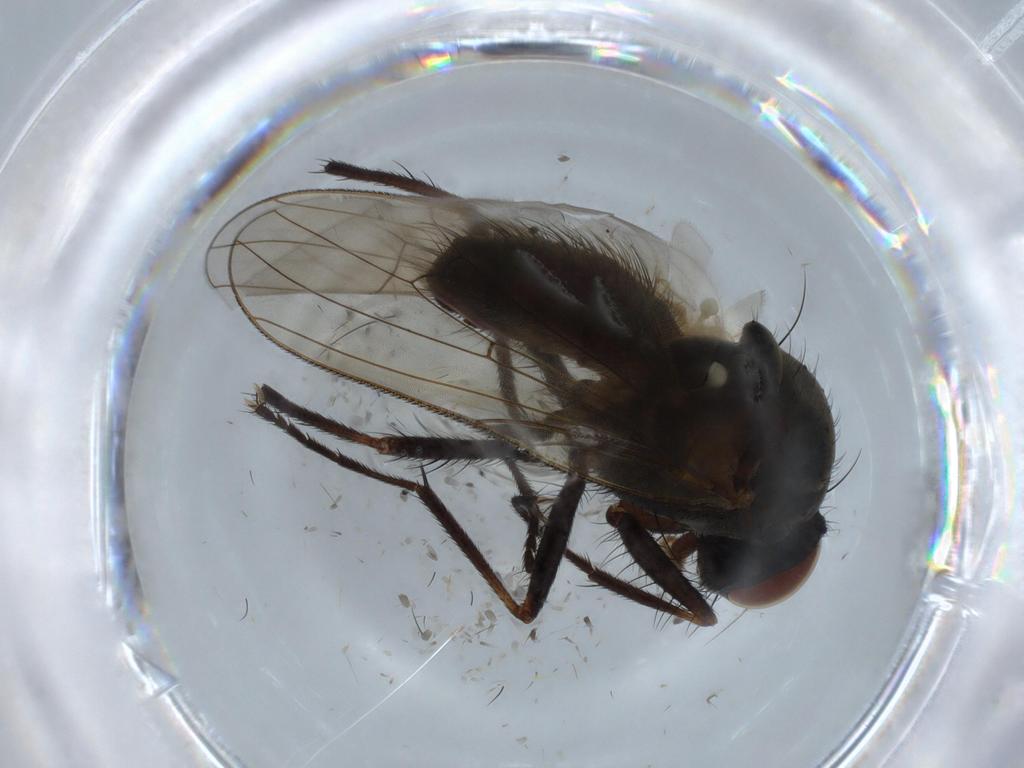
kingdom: Animalia
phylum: Arthropoda
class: Insecta
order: Diptera
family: Anthomyiidae
